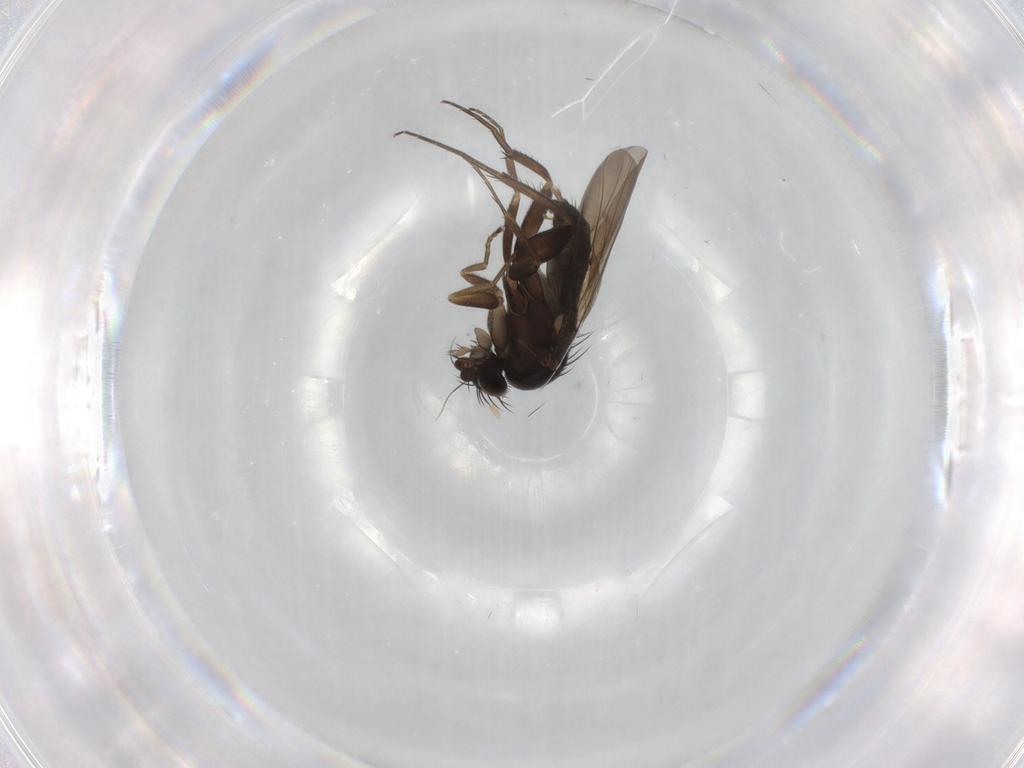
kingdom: Animalia
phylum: Arthropoda
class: Insecta
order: Diptera
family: Phoridae
